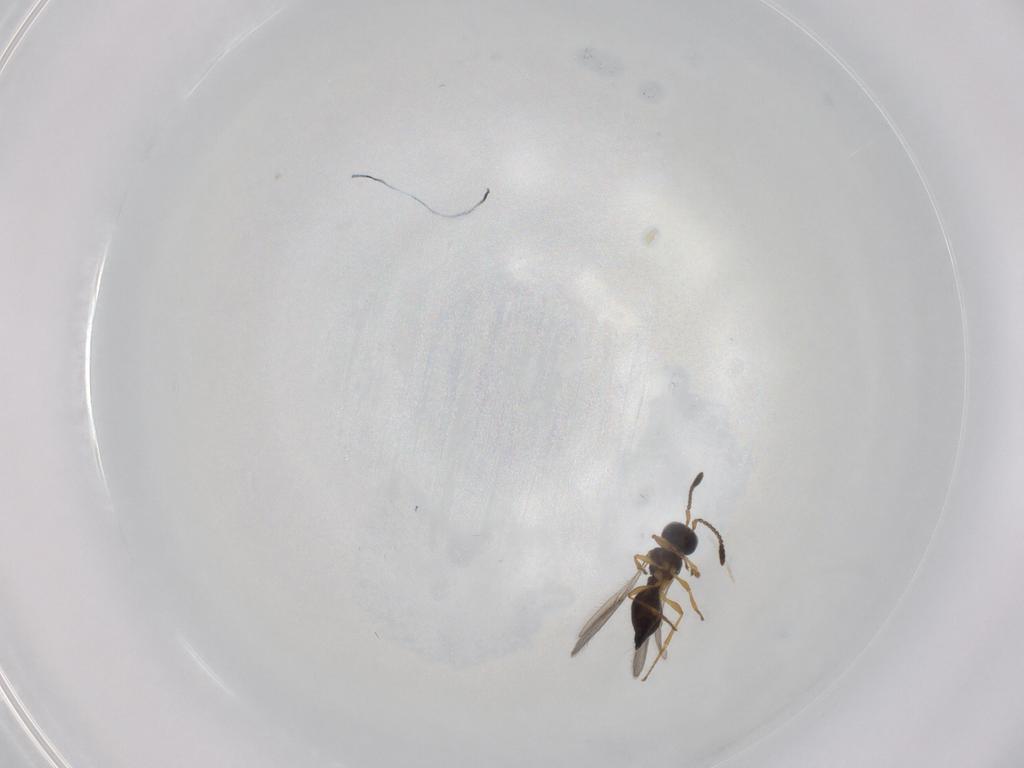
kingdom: Animalia
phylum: Arthropoda
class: Insecta
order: Hymenoptera
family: Scelionidae
